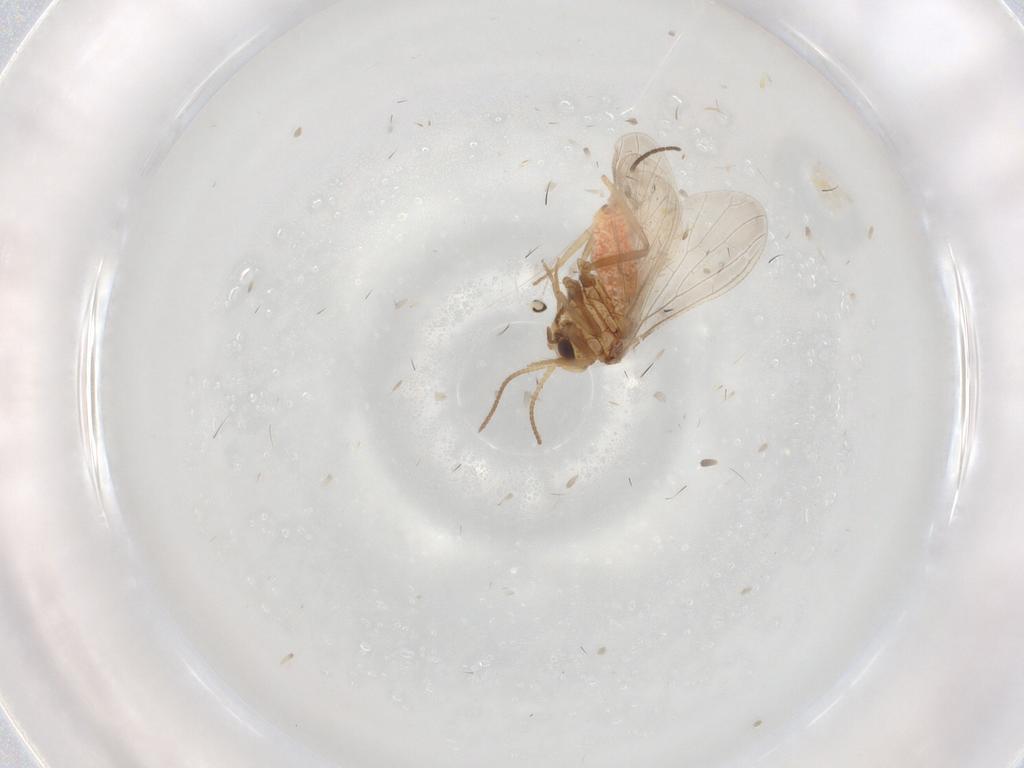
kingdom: Animalia
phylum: Arthropoda
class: Insecta
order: Neuroptera
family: Coniopterygidae
